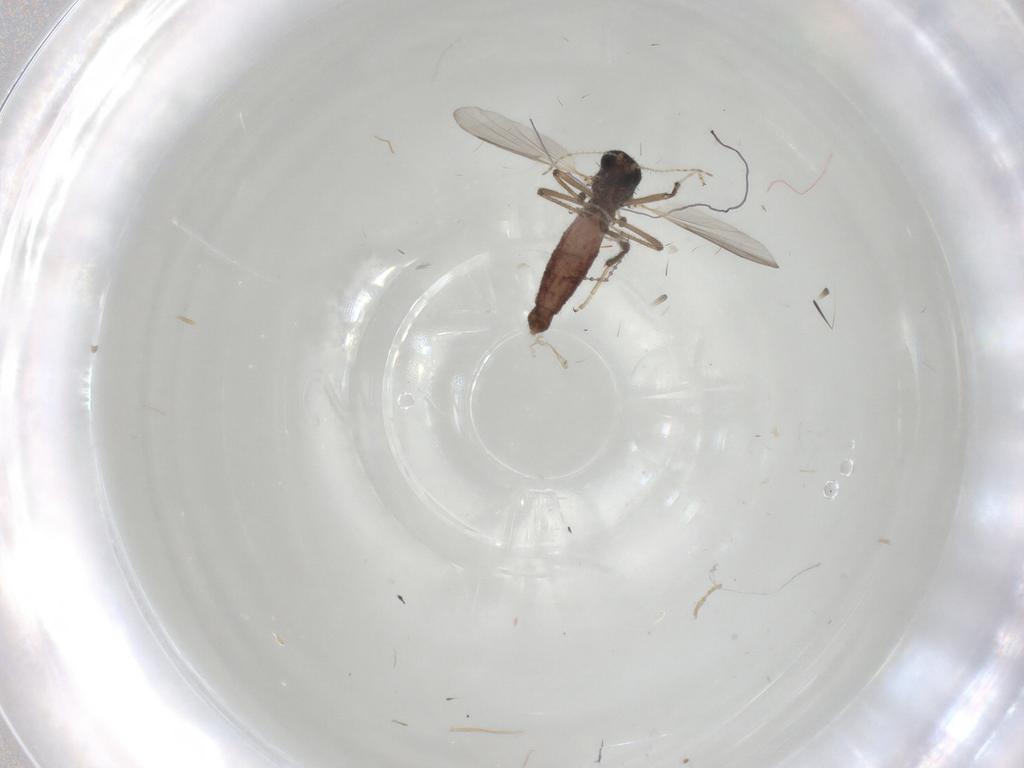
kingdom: Animalia
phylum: Arthropoda
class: Insecta
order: Diptera
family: Ceratopogonidae
